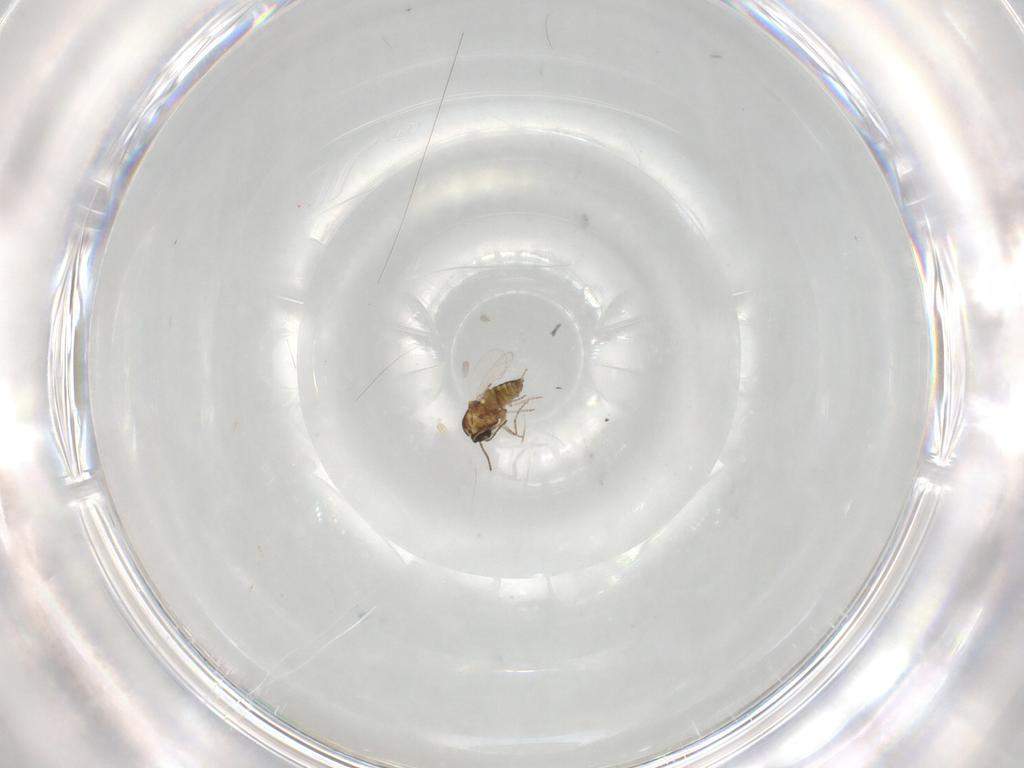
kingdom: Animalia
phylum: Arthropoda
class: Insecta
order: Diptera
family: Ceratopogonidae
